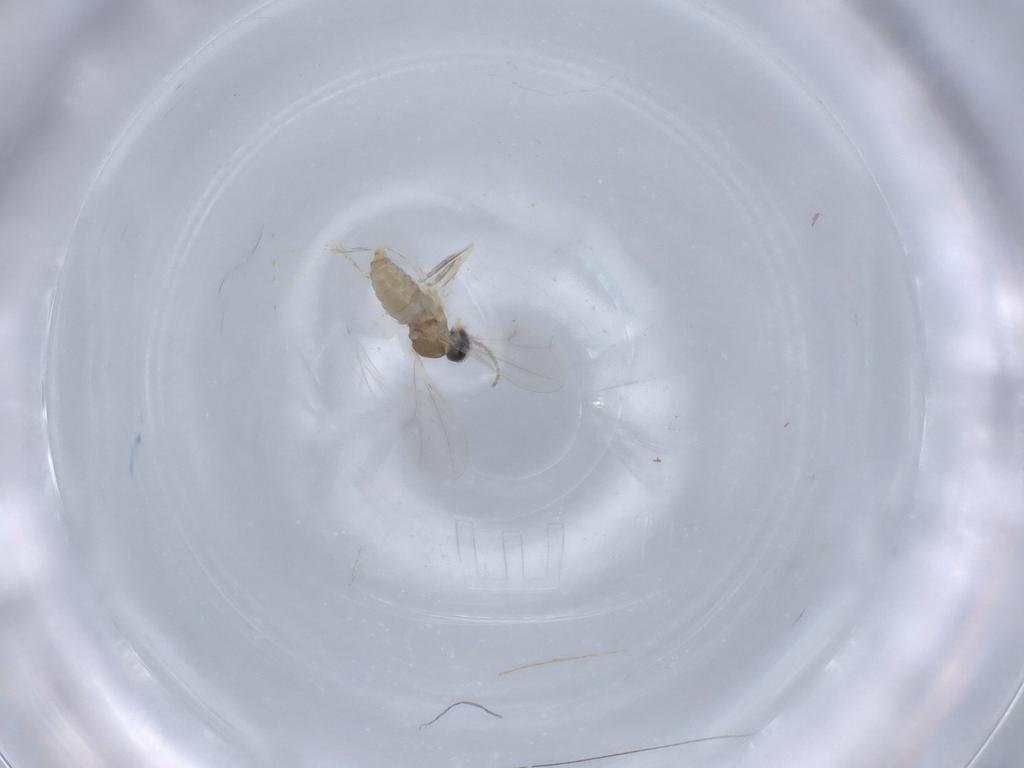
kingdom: Animalia
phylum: Arthropoda
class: Insecta
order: Diptera
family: Cecidomyiidae
